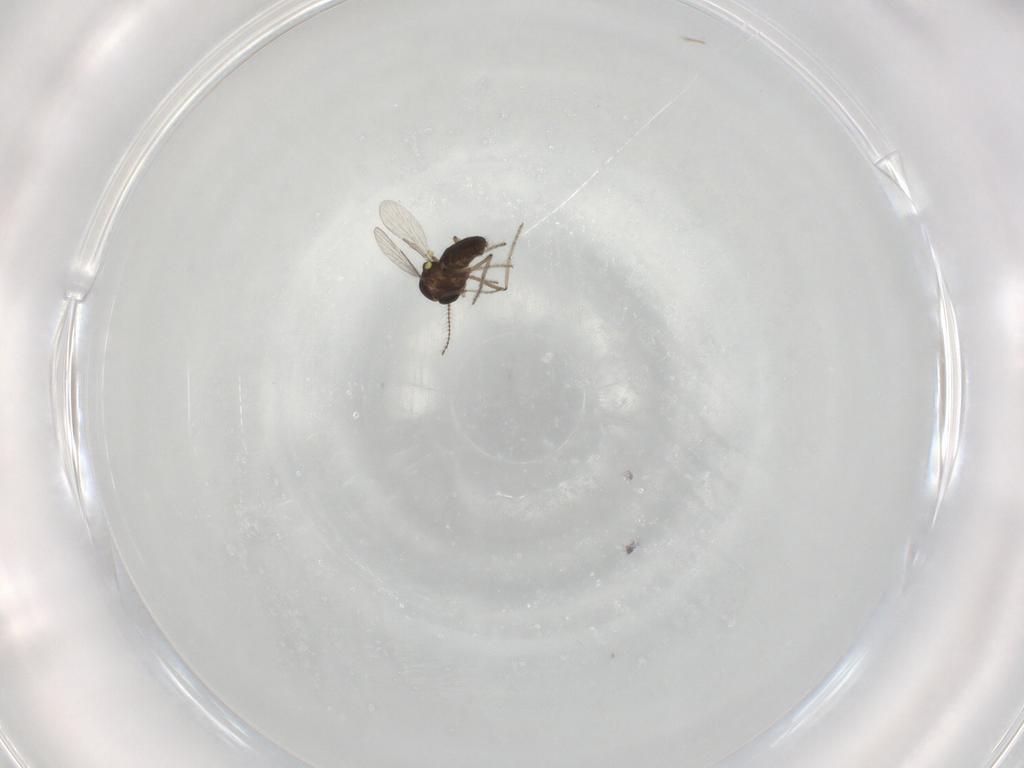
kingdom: Animalia
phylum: Arthropoda
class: Insecta
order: Diptera
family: Ceratopogonidae
